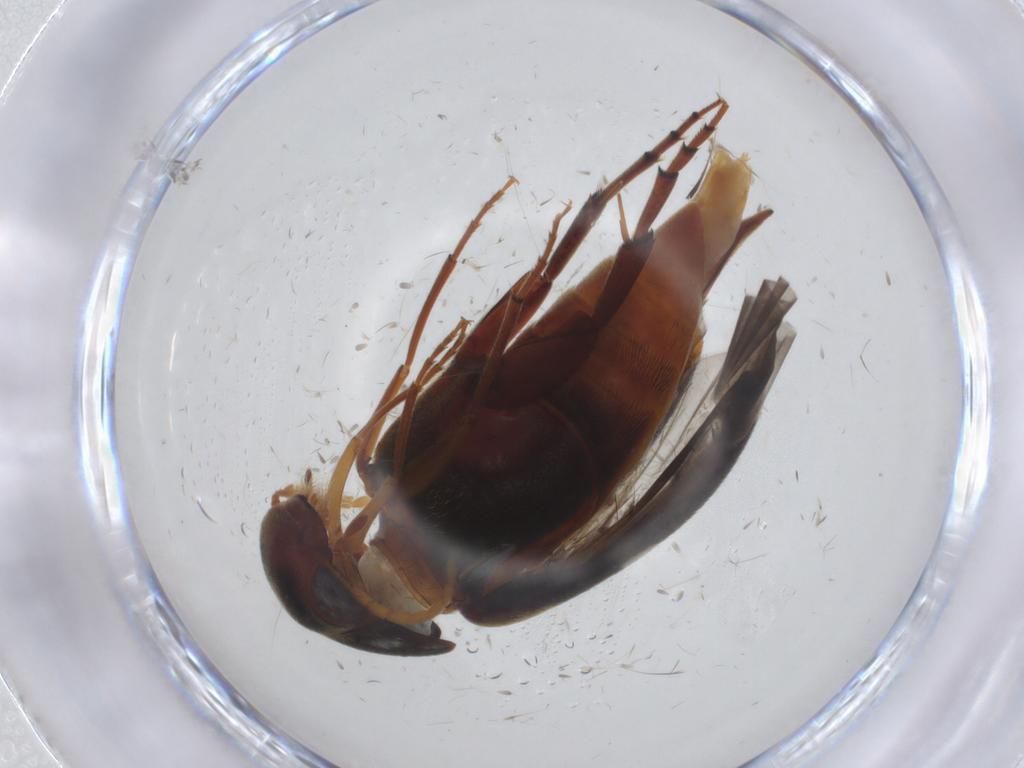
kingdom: Animalia
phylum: Arthropoda
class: Insecta
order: Coleoptera
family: Mordellidae
